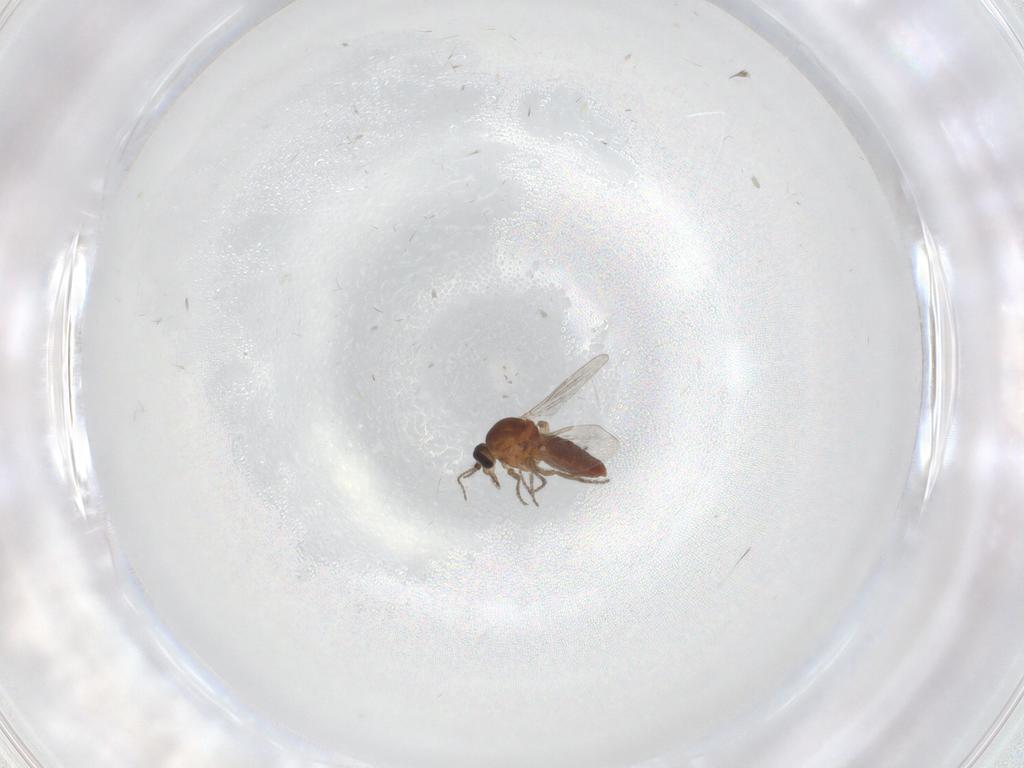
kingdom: Animalia
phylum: Arthropoda
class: Insecta
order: Diptera
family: Ceratopogonidae
